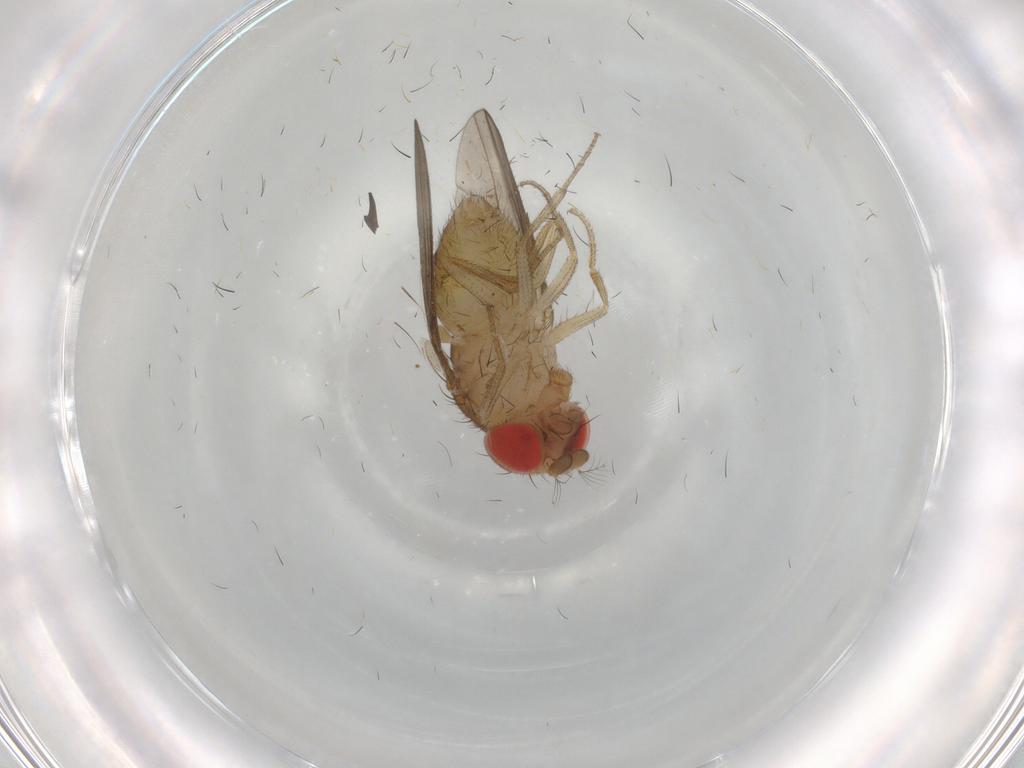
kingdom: Animalia
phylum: Arthropoda
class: Insecta
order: Diptera
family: Drosophilidae
